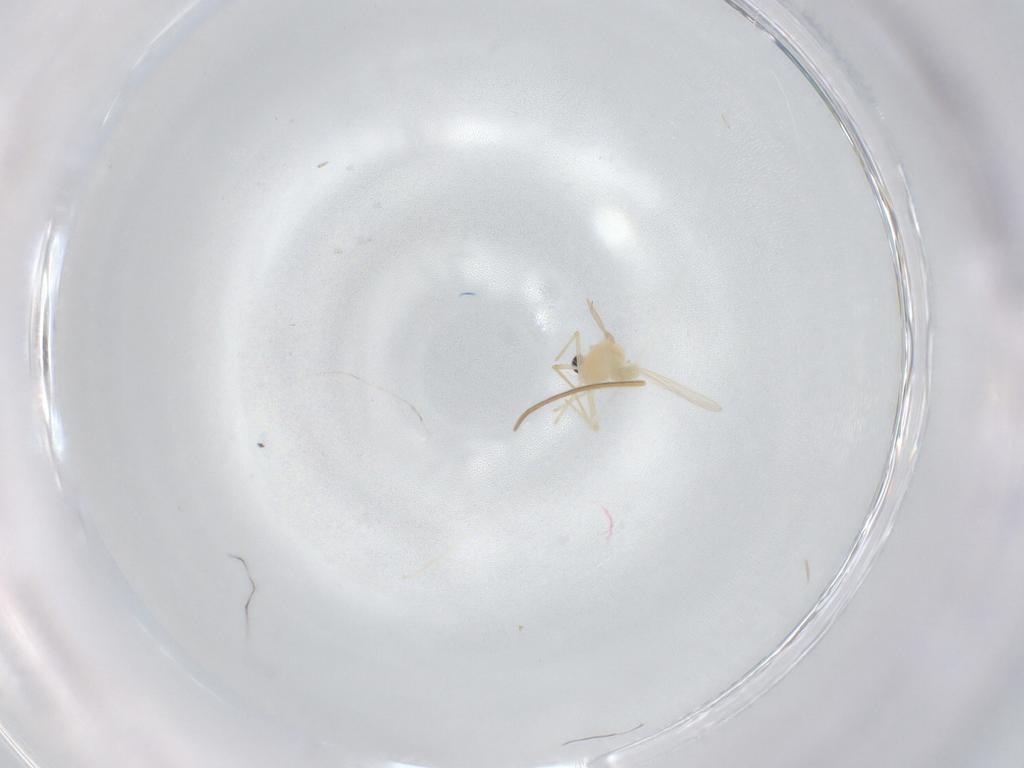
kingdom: Animalia
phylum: Arthropoda
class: Insecta
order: Diptera
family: Chironomidae
